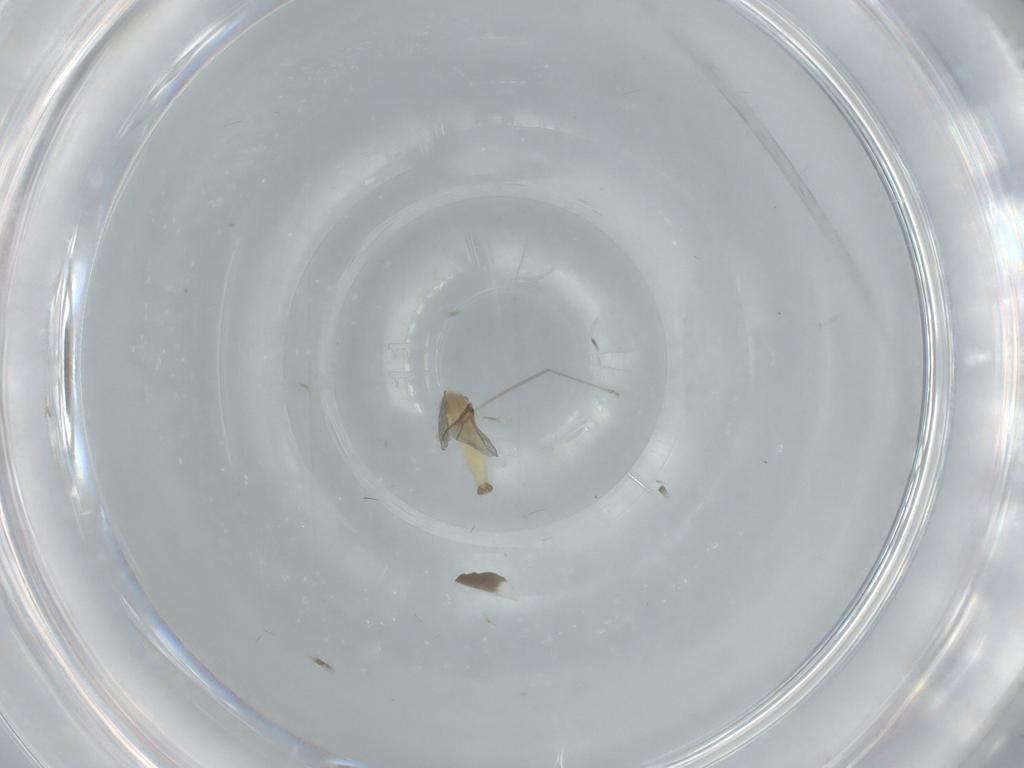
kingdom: Animalia
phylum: Arthropoda
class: Insecta
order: Diptera
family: Cecidomyiidae
